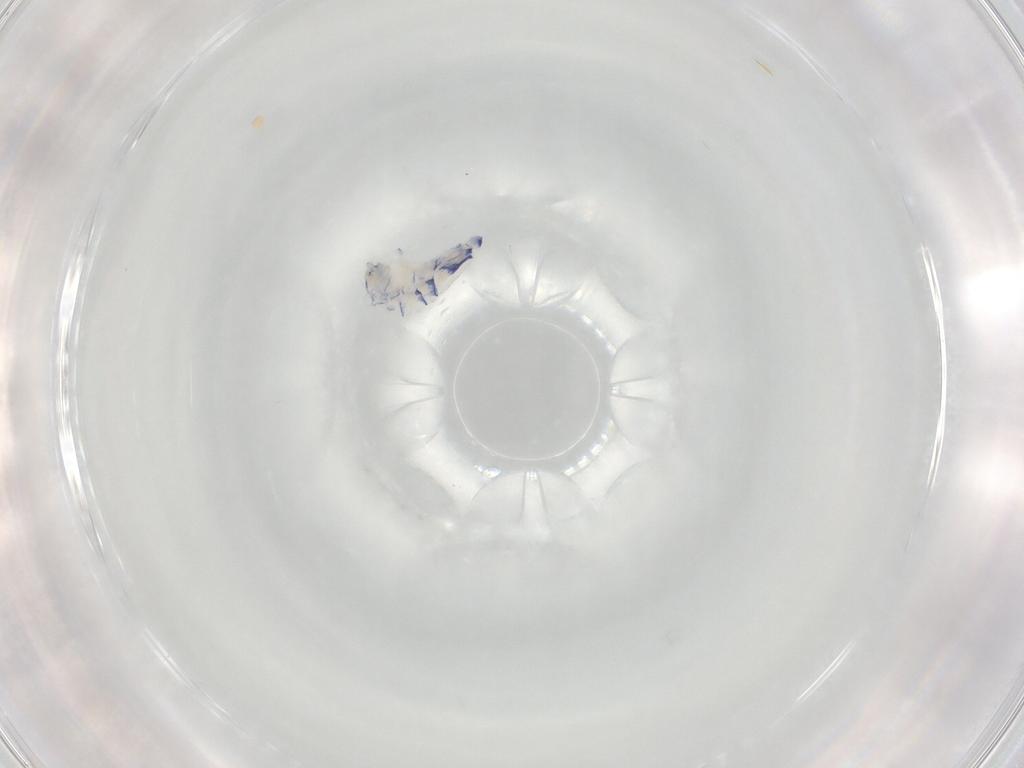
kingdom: Animalia
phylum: Arthropoda
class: Collembola
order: Entomobryomorpha
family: Entomobryidae
